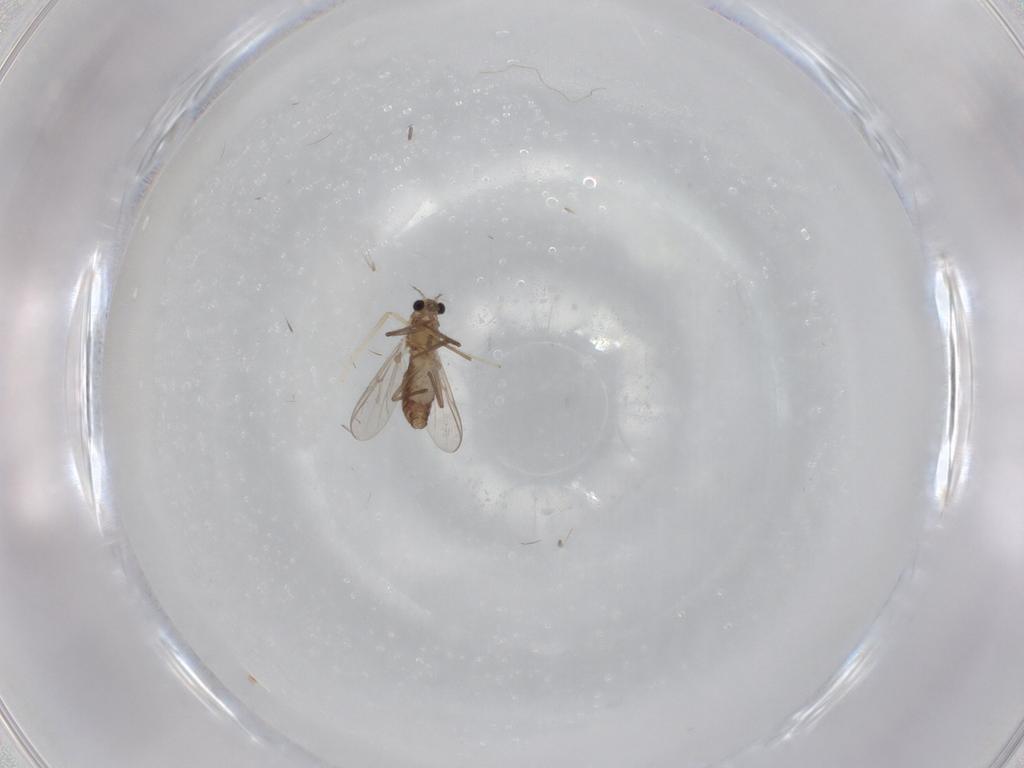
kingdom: Animalia
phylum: Arthropoda
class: Insecta
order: Diptera
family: Chironomidae
